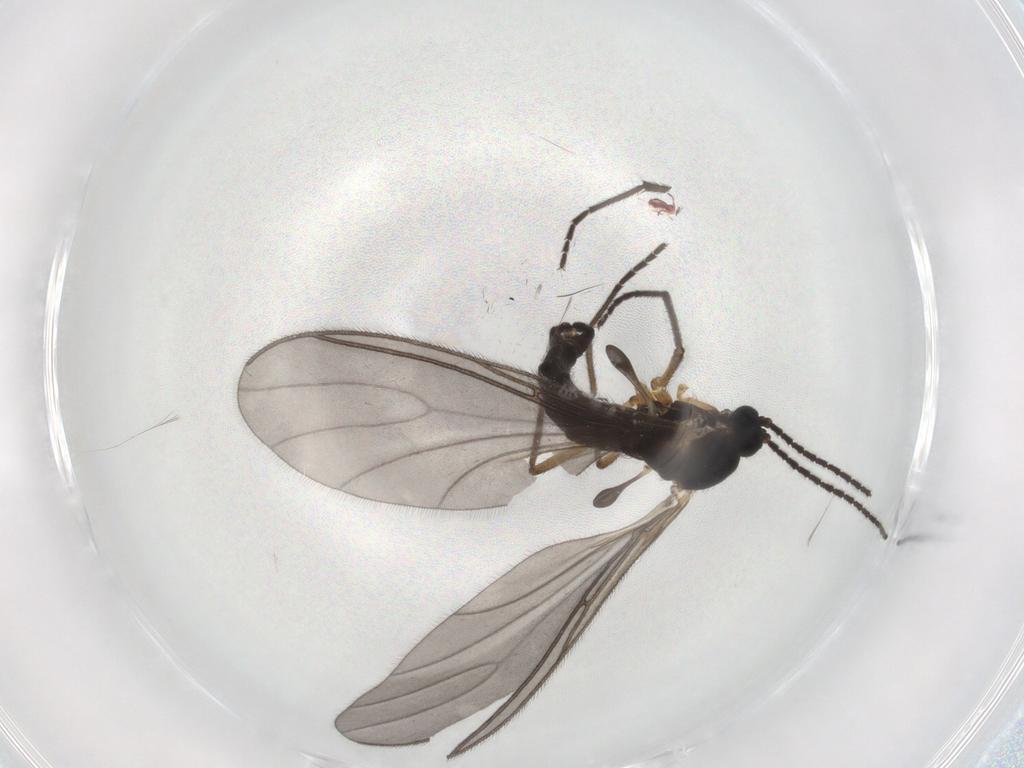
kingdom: Animalia
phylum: Arthropoda
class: Insecta
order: Diptera
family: Sciaridae
